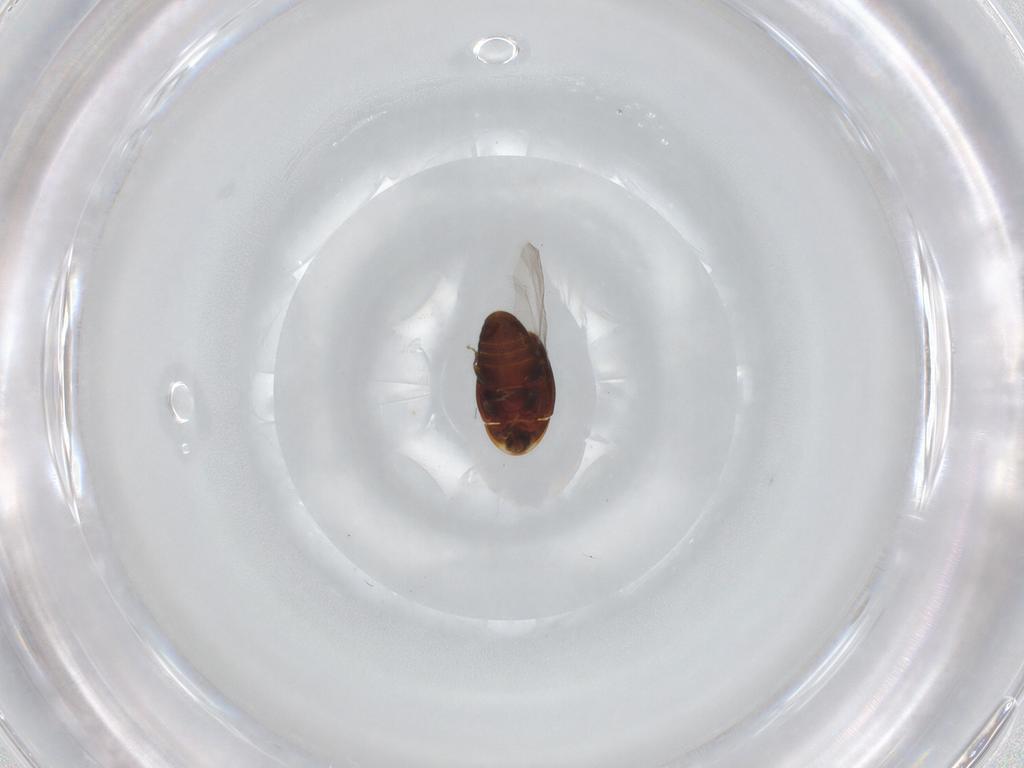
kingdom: Animalia
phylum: Arthropoda
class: Insecta
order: Coleoptera
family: Corylophidae
